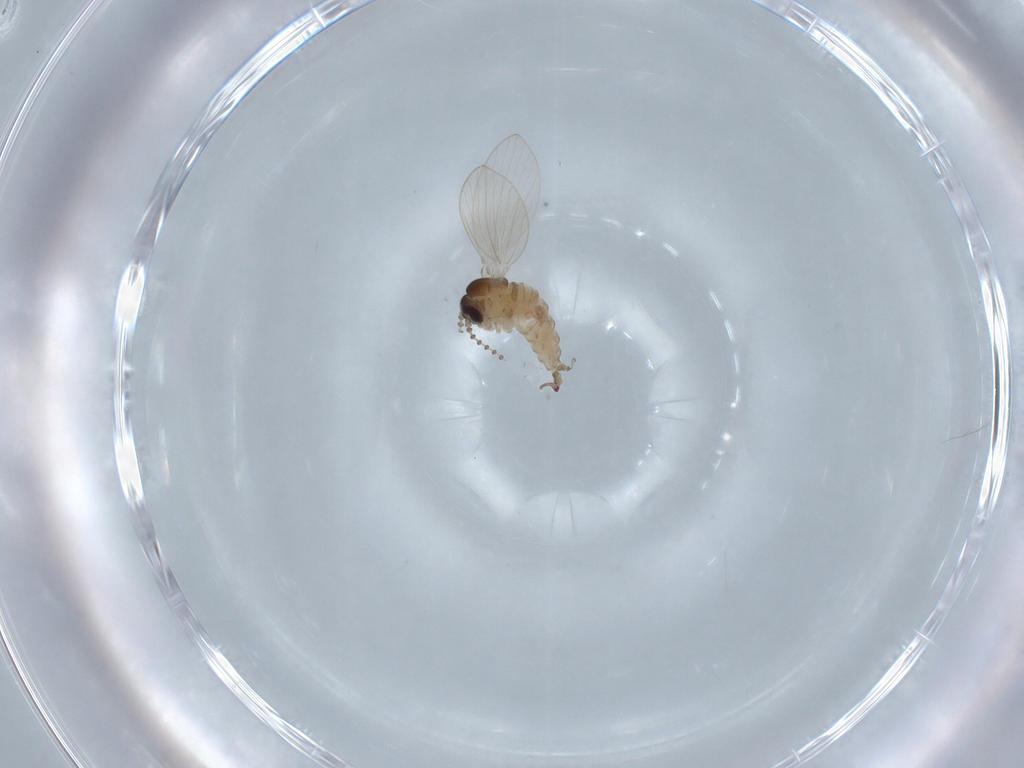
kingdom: Animalia
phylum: Arthropoda
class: Insecta
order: Diptera
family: Psychodidae
